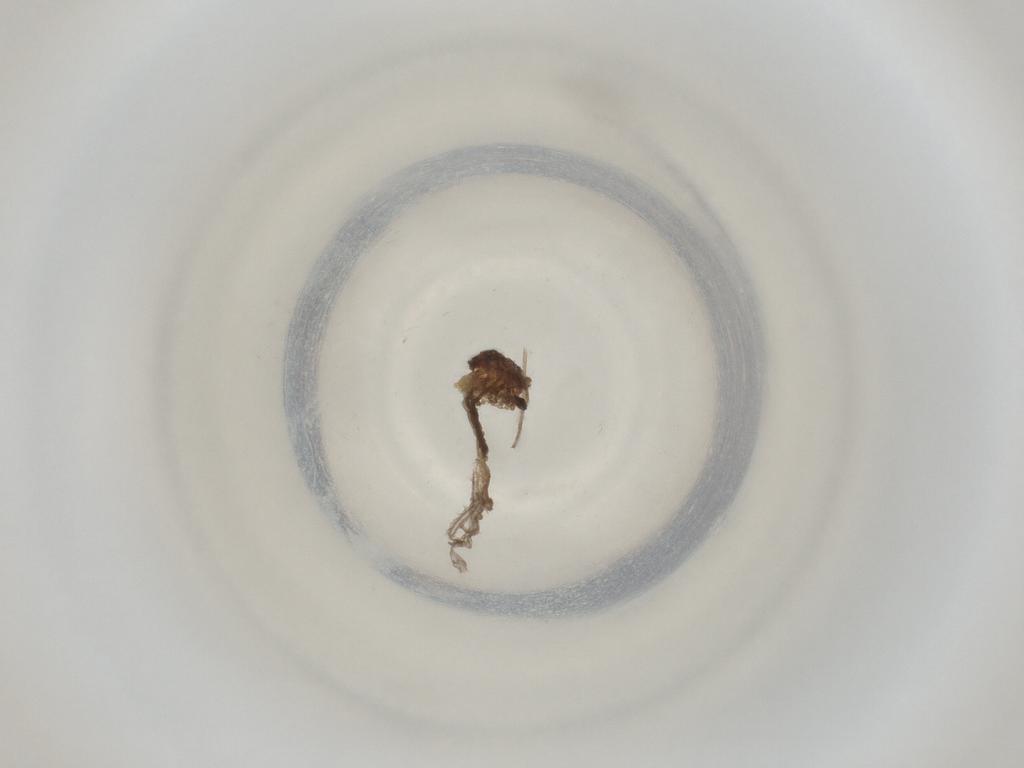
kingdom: Animalia
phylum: Arthropoda
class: Insecta
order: Diptera
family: Cecidomyiidae
